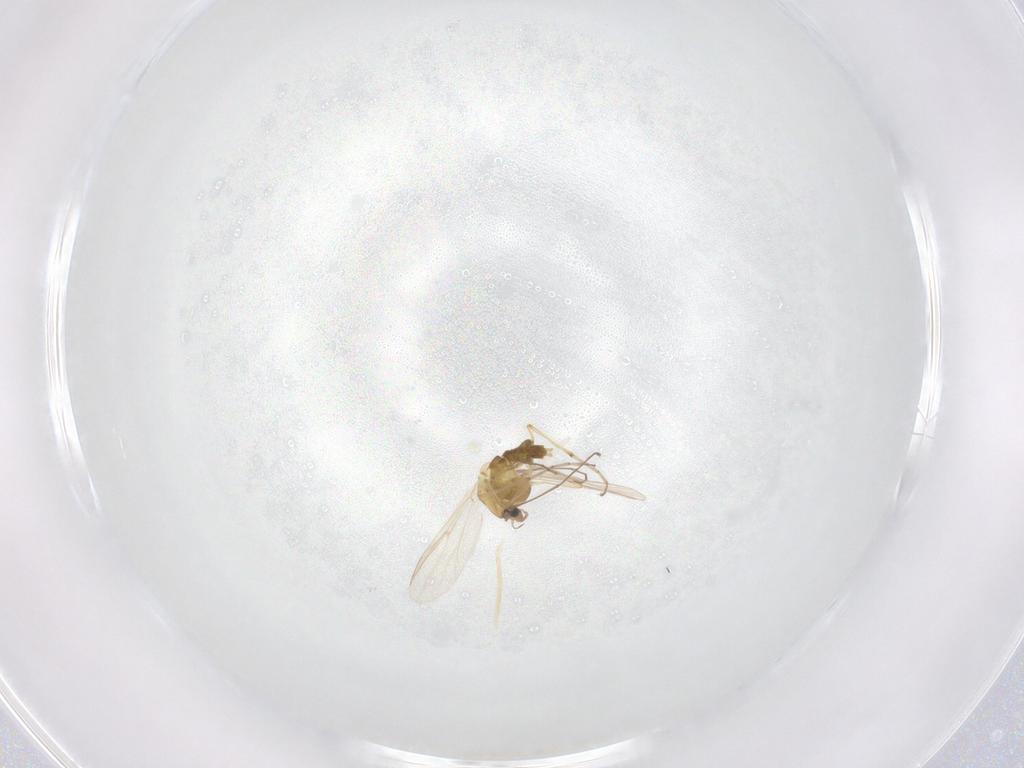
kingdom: Animalia
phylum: Arthropoda
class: Insecta
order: Diptera
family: Chironomidae
